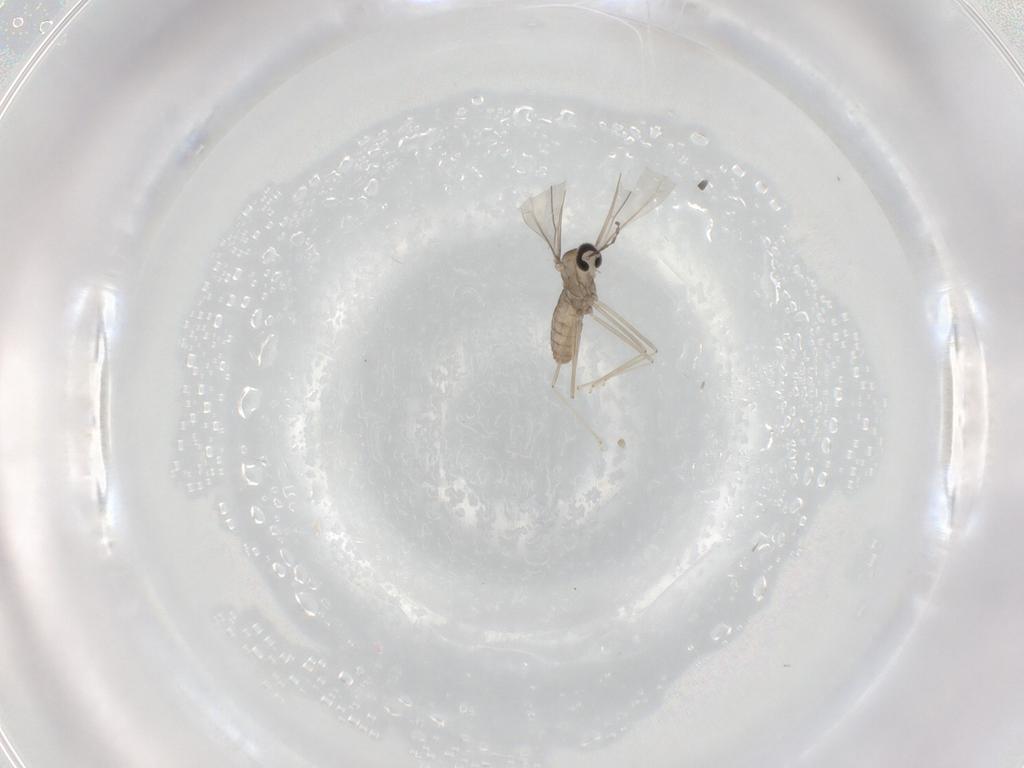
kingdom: Animalia
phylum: Arthropoda
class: Insecta
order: Diptera
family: Cecidomyiidae
